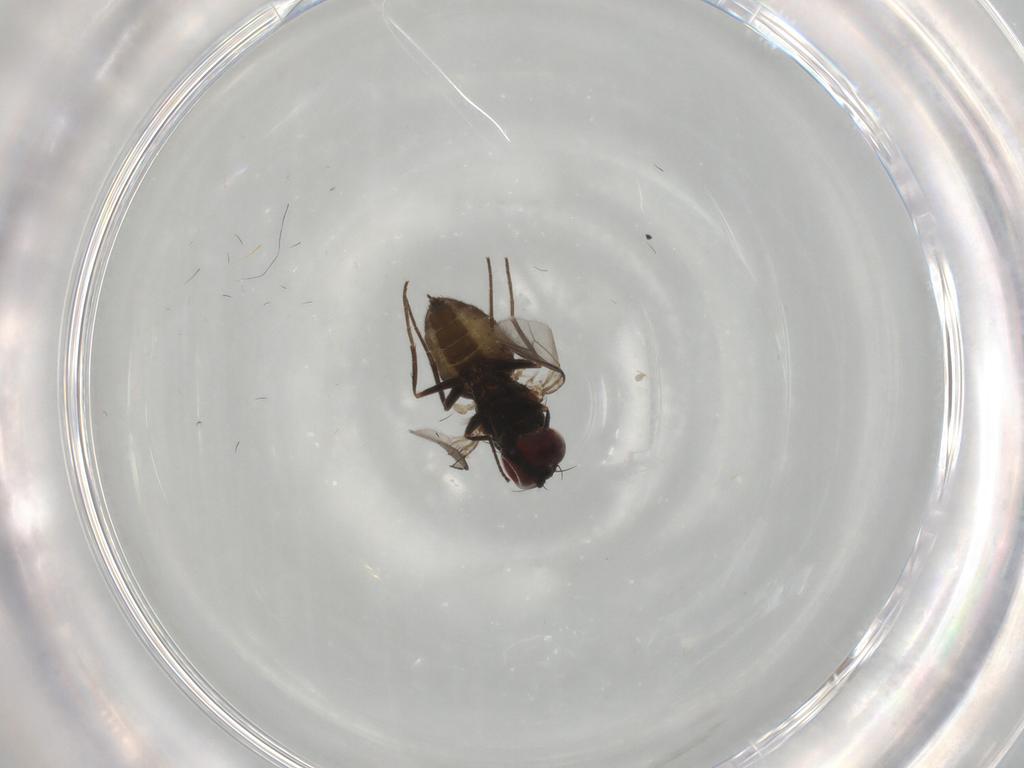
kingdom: Animalia
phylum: Arthropoda
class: Insecta
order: Diptera
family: Dolichopodidae
